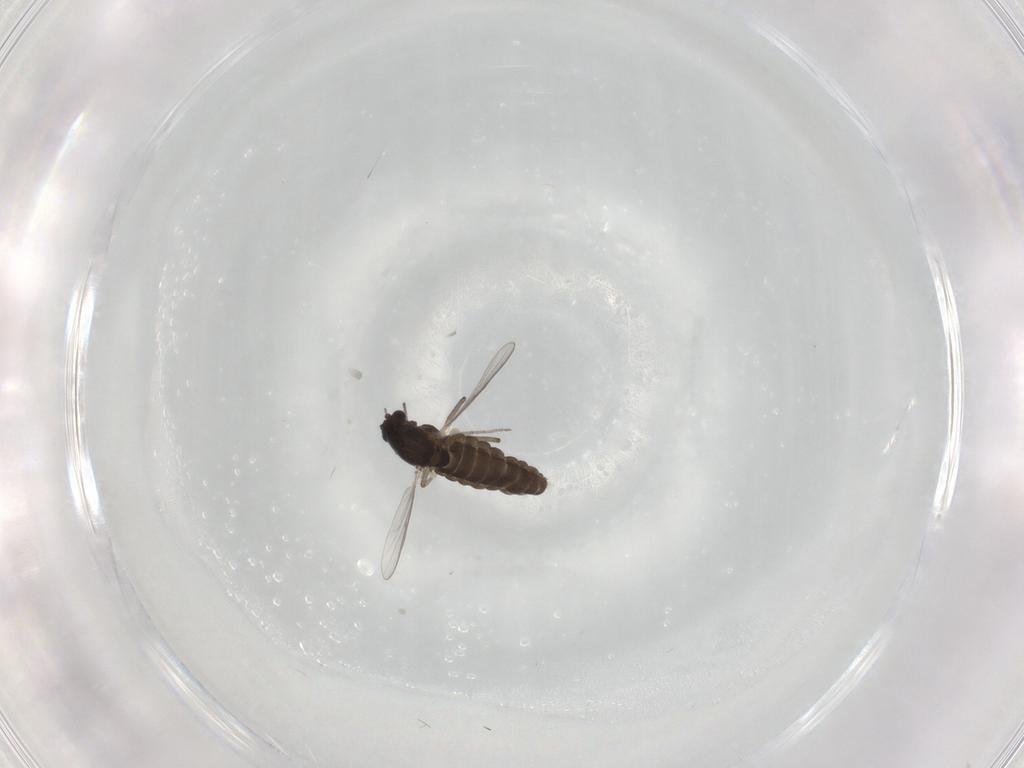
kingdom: Animalia
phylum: Arthropoda
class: Insecta
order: Diptera
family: Chironomidae
